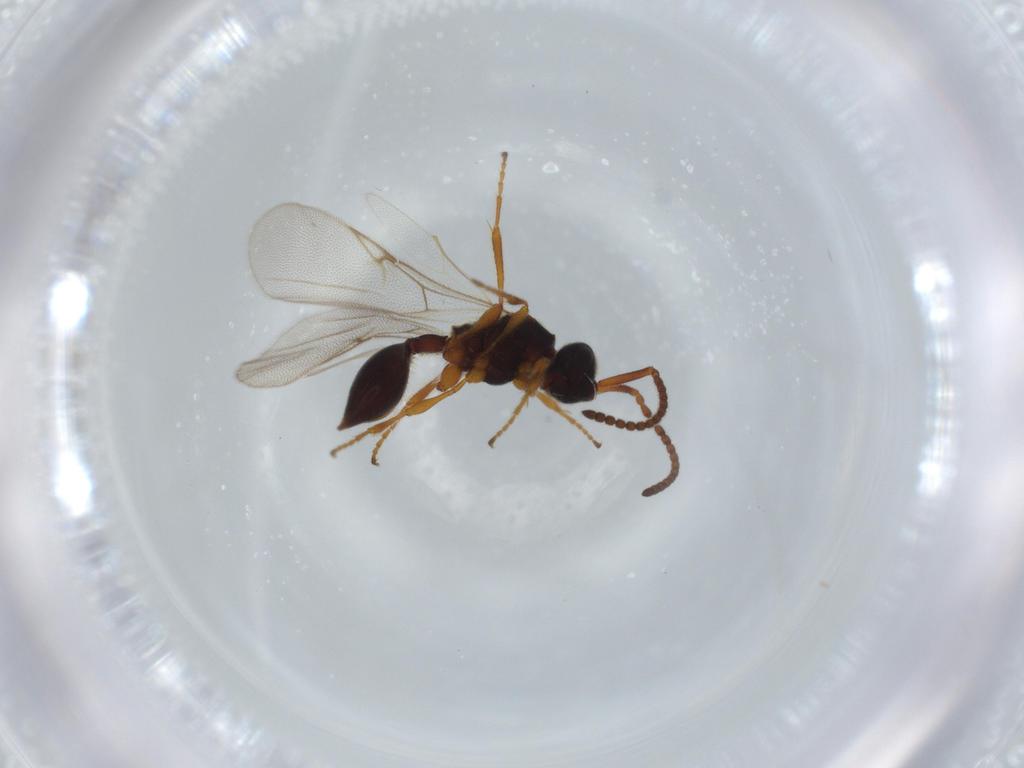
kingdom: Animalia
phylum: Arthropoda
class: Insecta
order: Hymenoptera
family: Diapriidae
